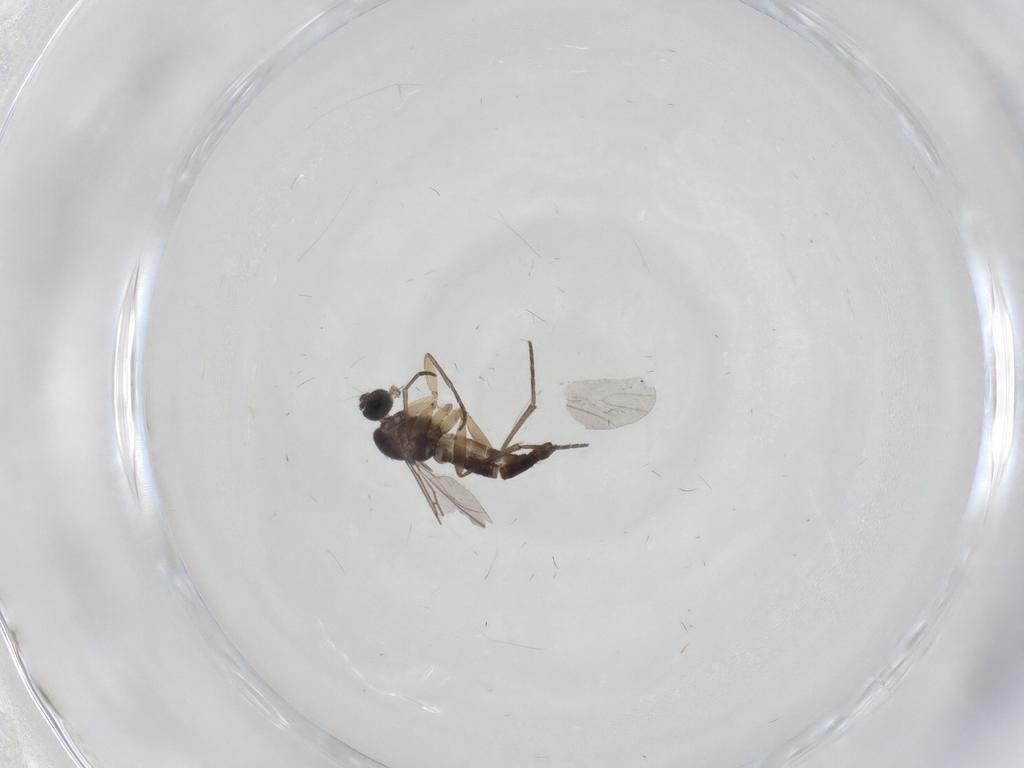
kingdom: Animalia
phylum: Arthropoda
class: Insecta
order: Diptera
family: Sciaridae
